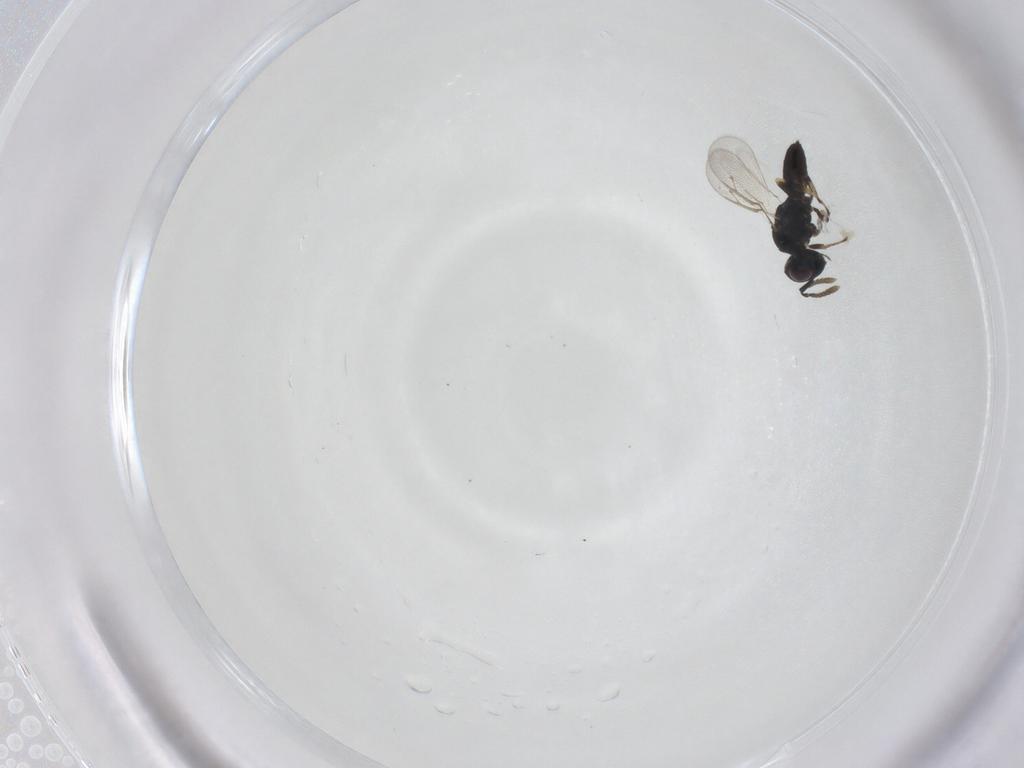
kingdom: Animalia
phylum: Arthropoda
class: Insecta
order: Hymenoptera
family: Pteromalidae
